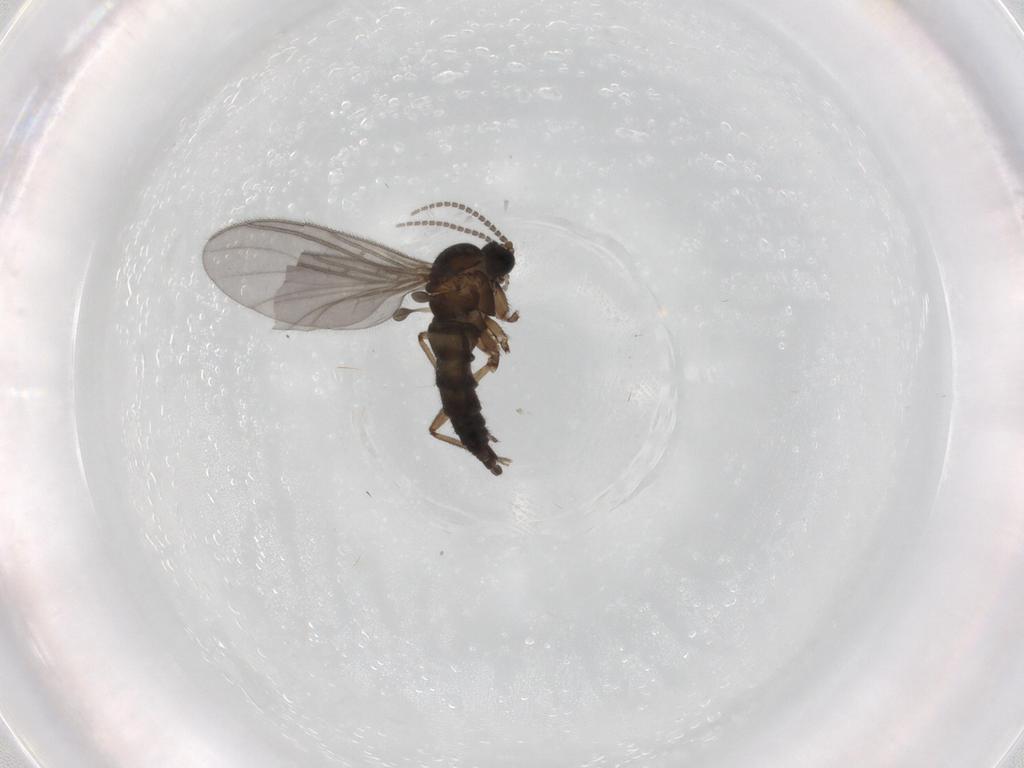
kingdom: Animalia
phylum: Arthropoda
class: Insecta
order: Diptera
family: Sciaridae
